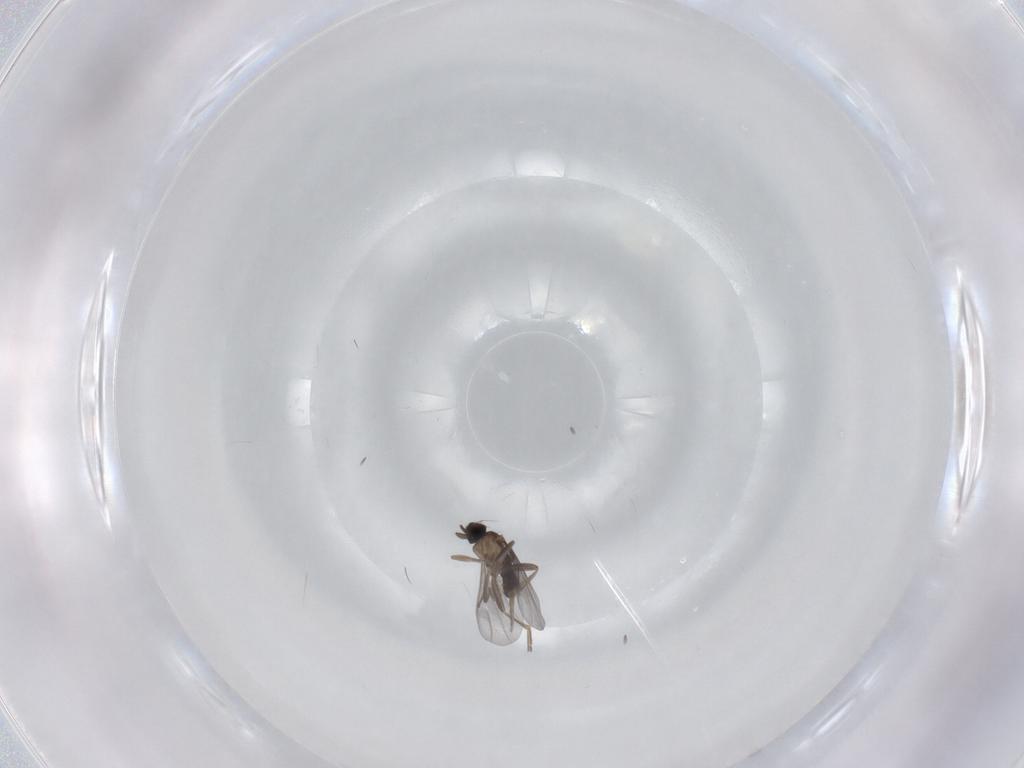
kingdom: Animalia
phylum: Arthropoda
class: Insecta
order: Diptera
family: Phoridae
